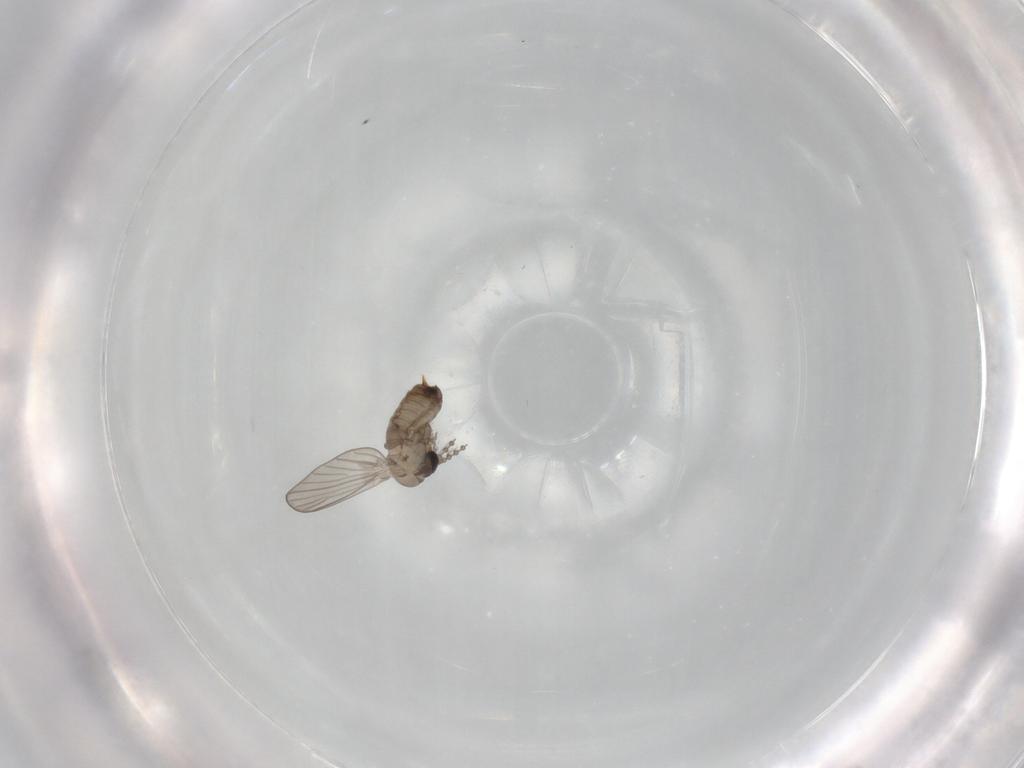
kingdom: Animalia
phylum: Arthropoda
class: Insecta
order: Diptera
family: Psychodidae
